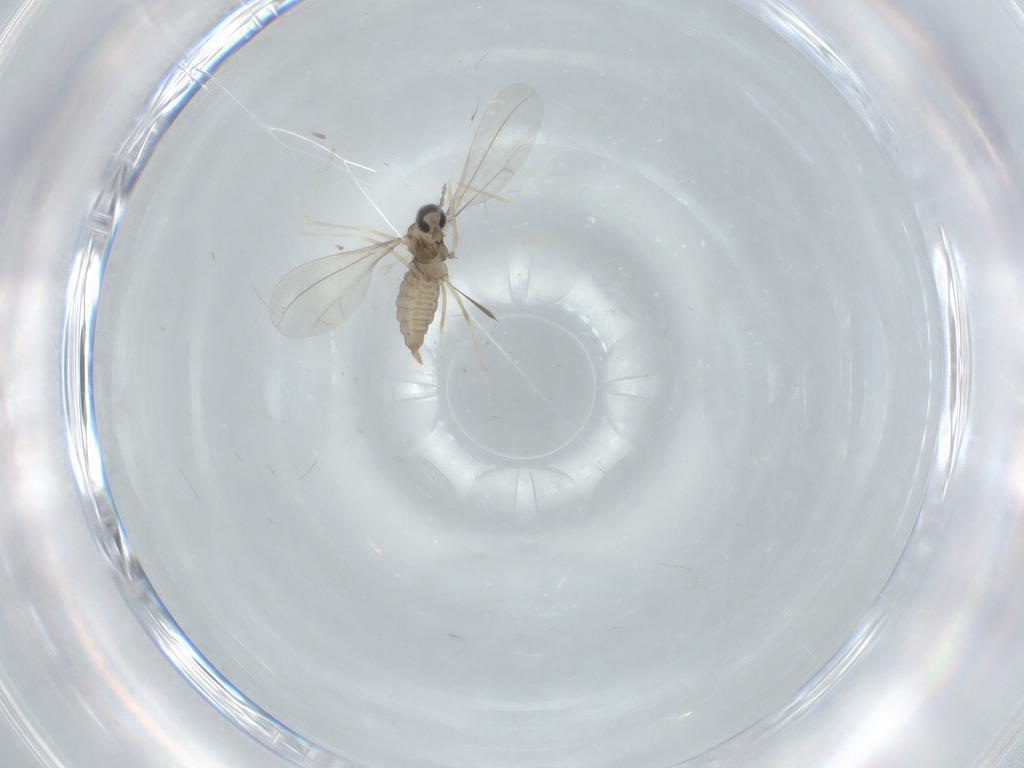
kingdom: Animalia
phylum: Arthropoda
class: Insecta
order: Diptera
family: Cecidomyiidae
